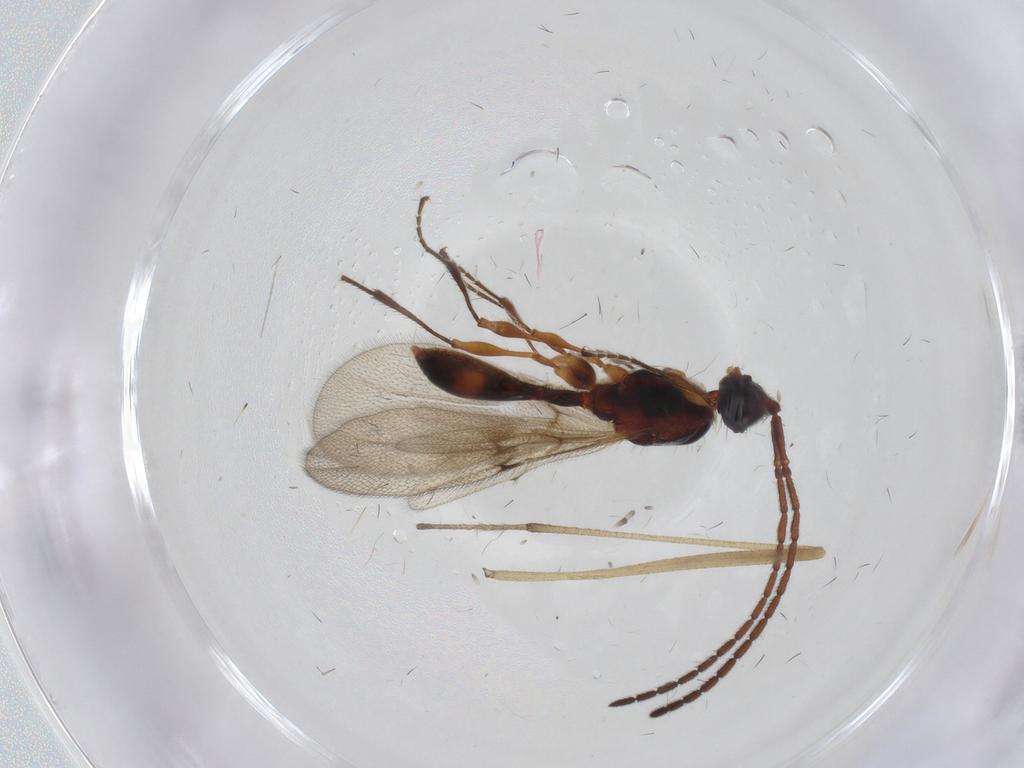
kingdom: Animalia
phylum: Arthropoda
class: Insecta
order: Hymenoptera
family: Diapriidae
